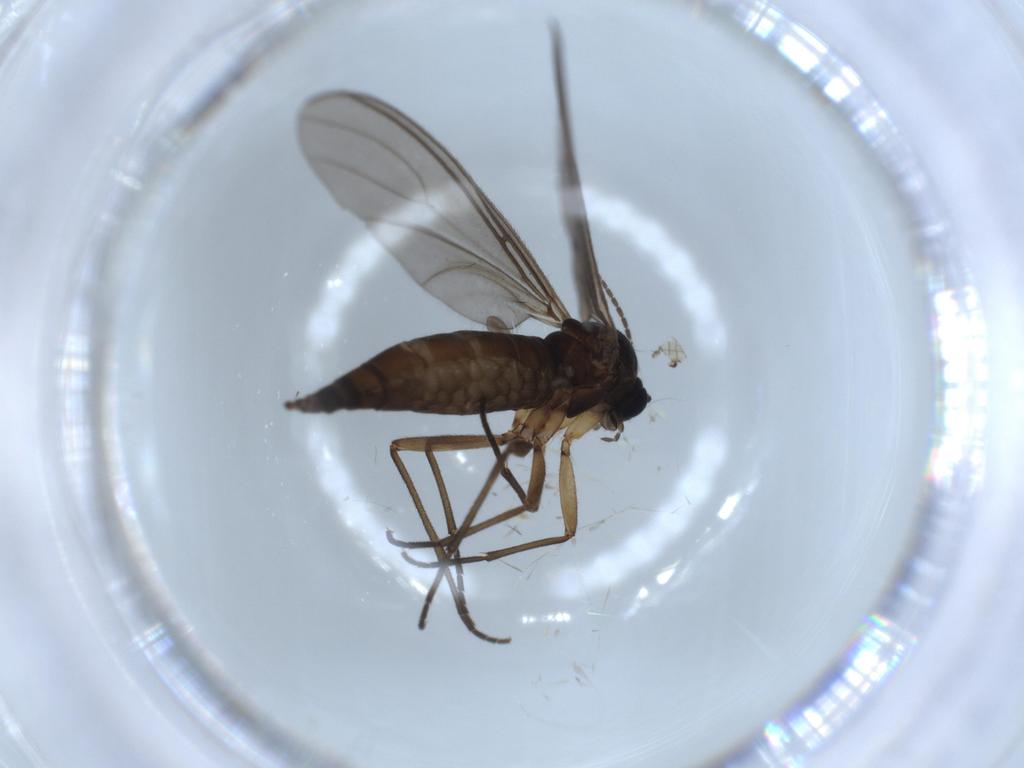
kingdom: Animalia
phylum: Arthropoda
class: Insecta
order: Diptera
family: Sciaridae
